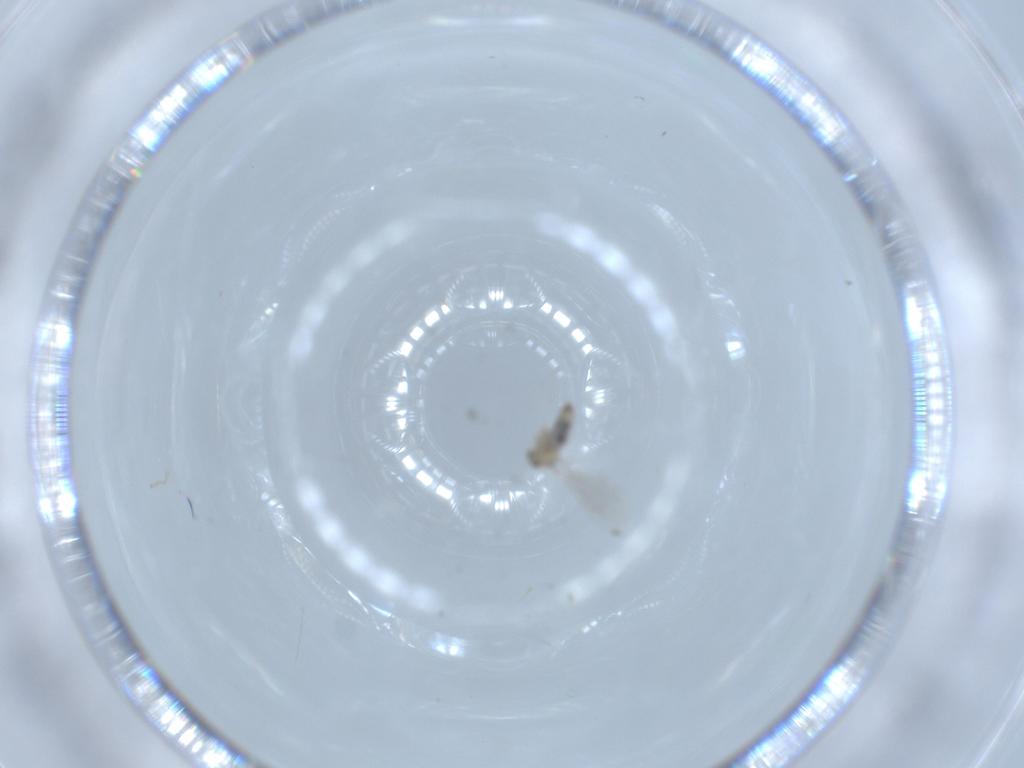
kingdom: Animalia
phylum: Arthropoda
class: Insecta
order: Diptera
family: Cecidomyiidae
